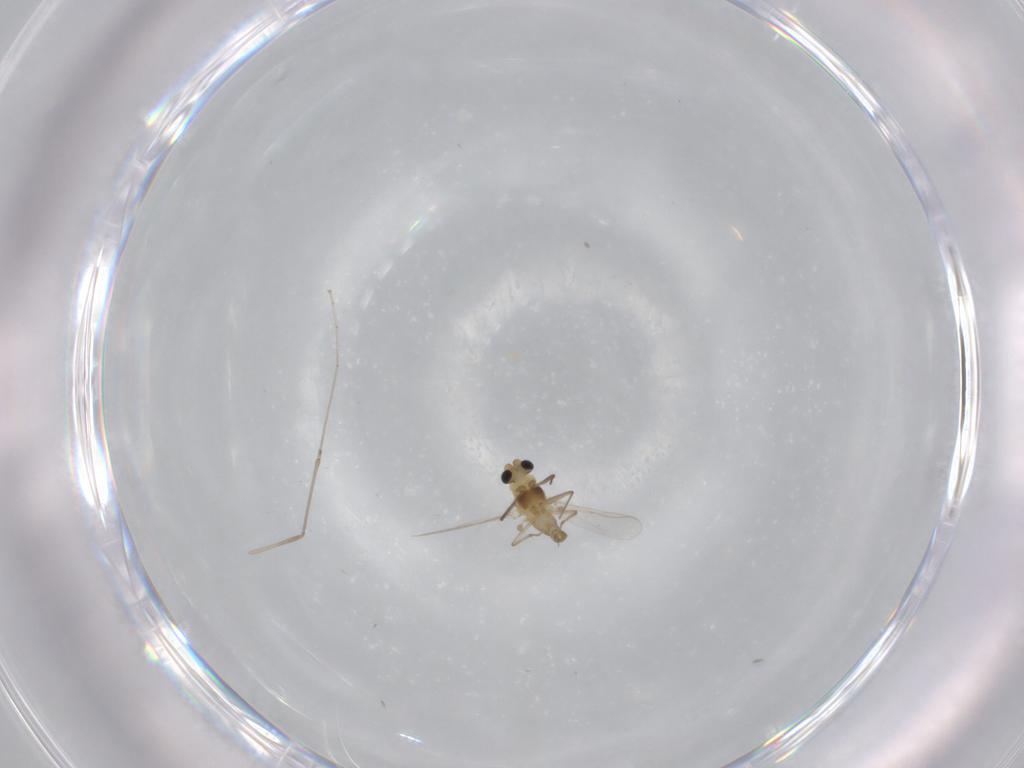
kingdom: Animalia
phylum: Arthropoda
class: Insecta
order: Diptera
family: Chironomidae
